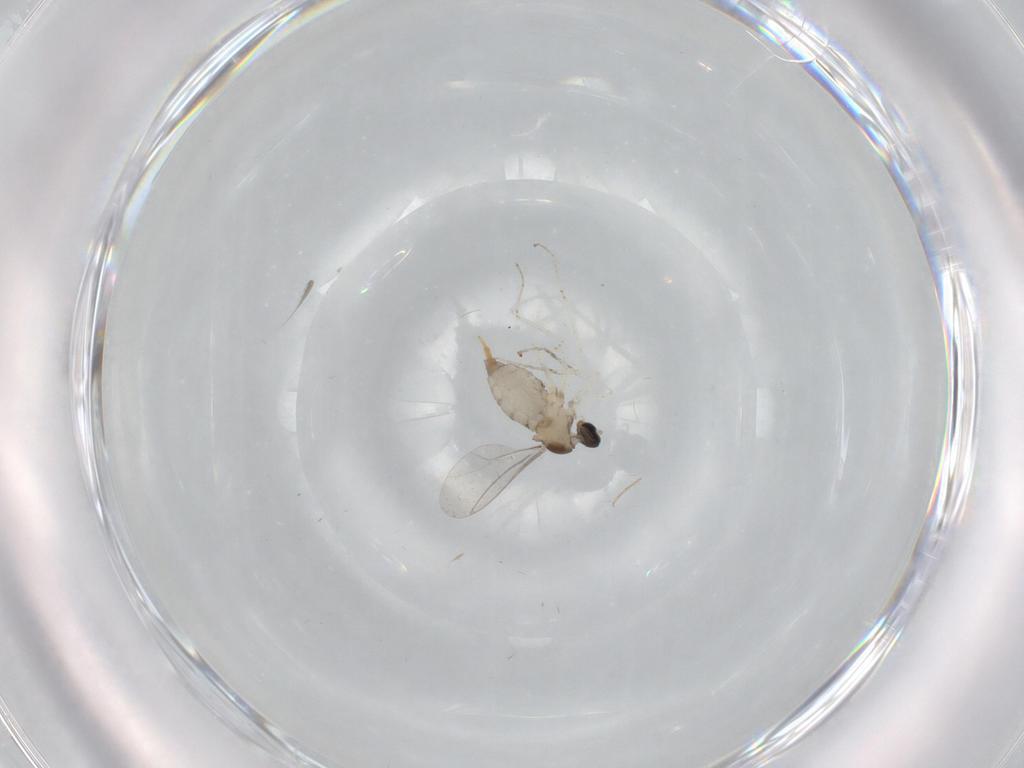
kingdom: Animalia
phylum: Arthropoda
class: Insecta
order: Diptera
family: Cecidomyiidae
